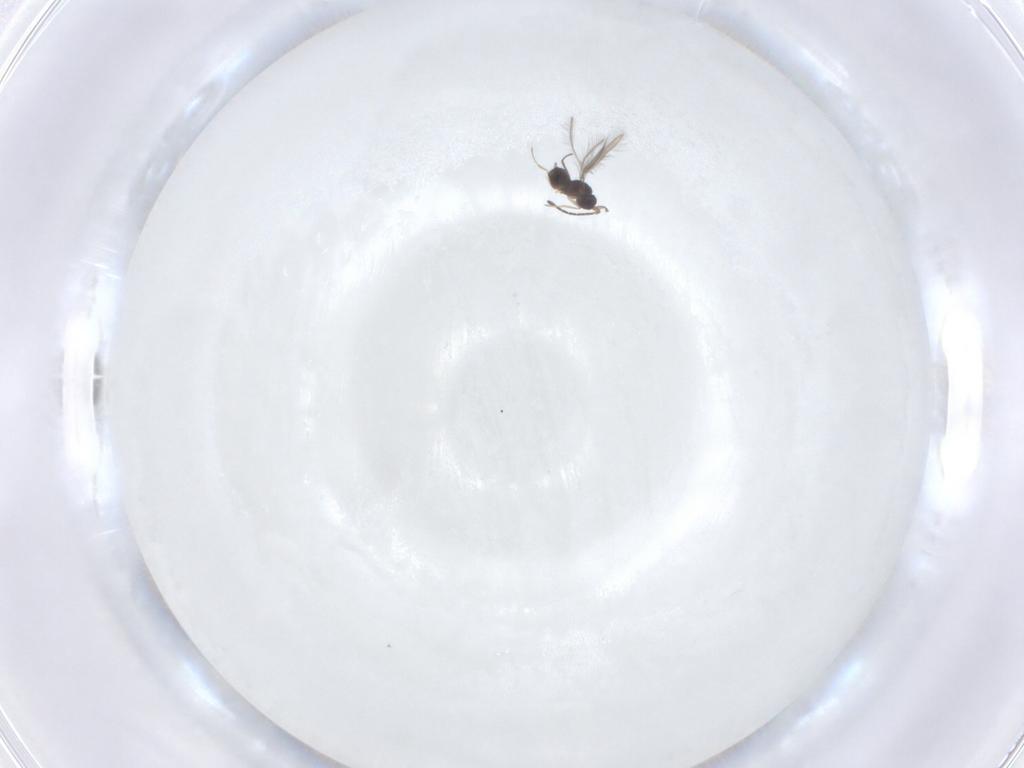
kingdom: Animalia
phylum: Arthropoda
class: Insecta
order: Hymenoptera
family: Mymaridae
